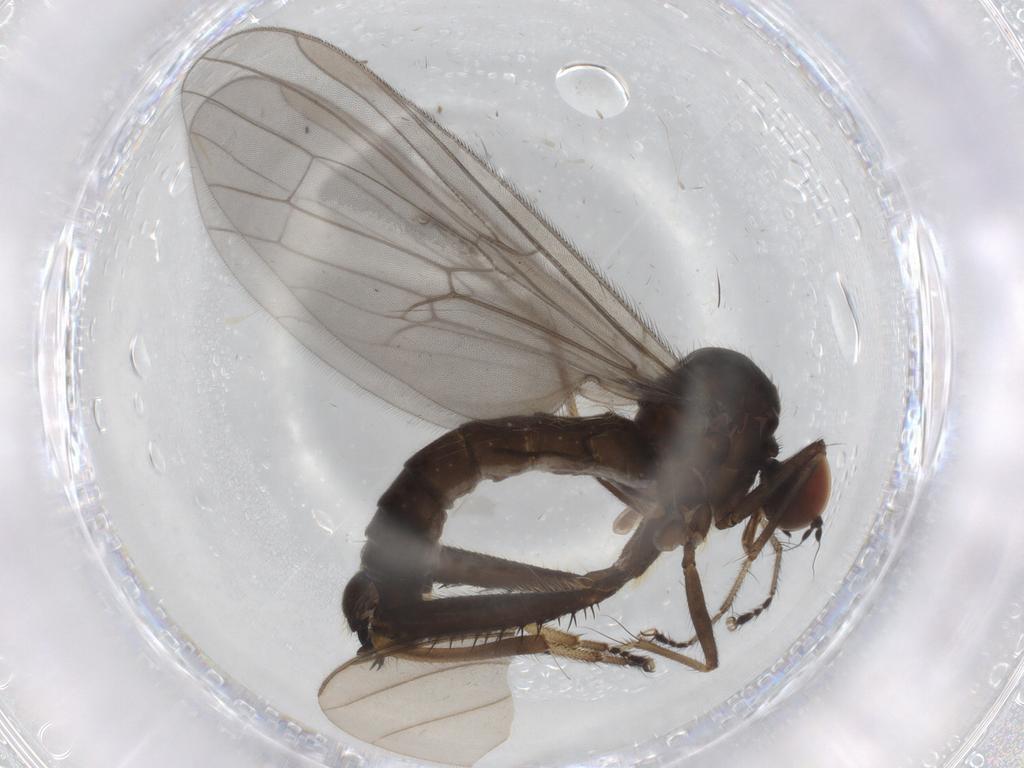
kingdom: Animalia
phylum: Arthropoda
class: Insecta
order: Diptera
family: Hybotidae
